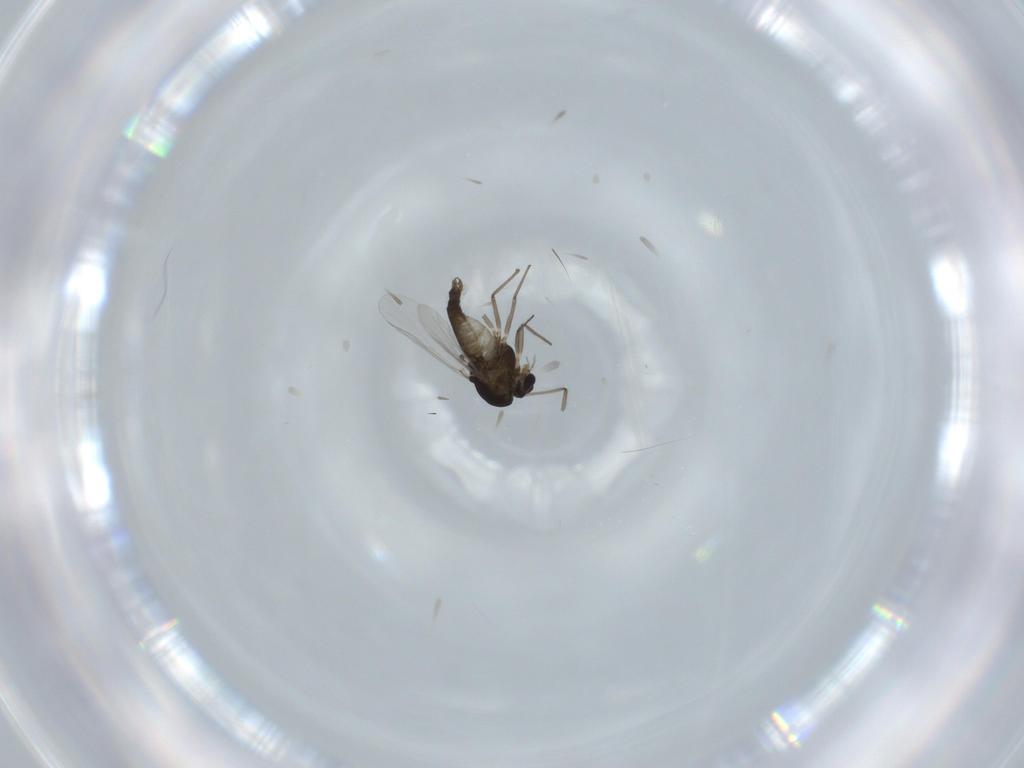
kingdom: Animalia
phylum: Arthropoda
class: Insecta
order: Diptera
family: Chironomidae
